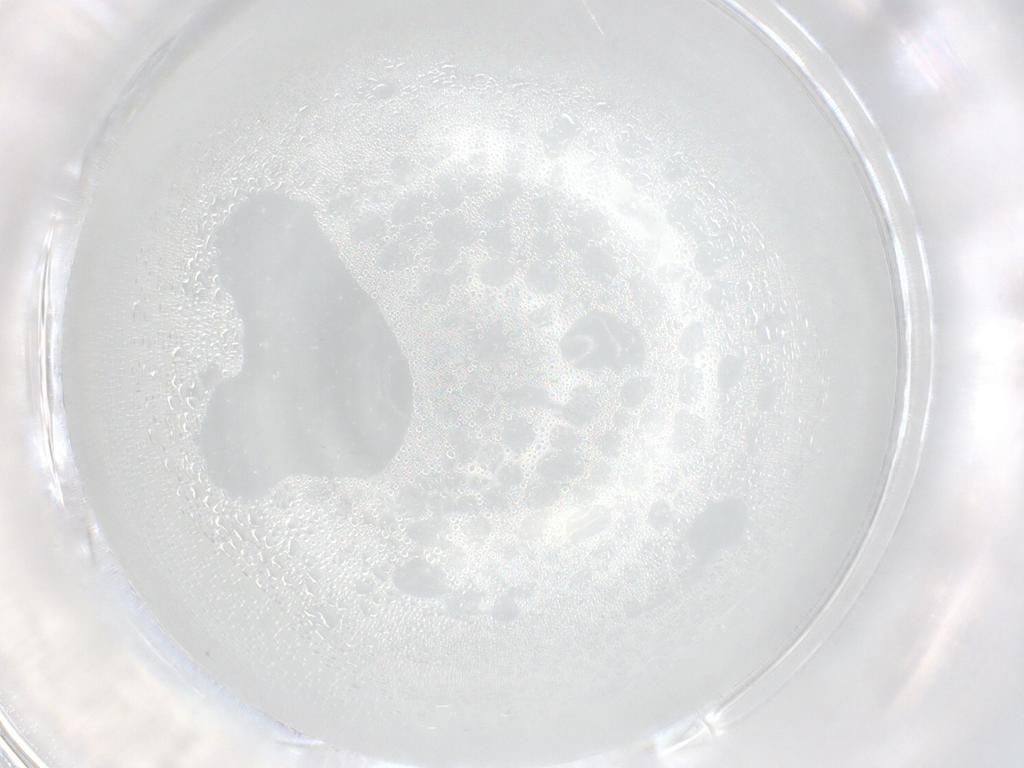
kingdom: Animalia
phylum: Arthropoda
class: Insecta
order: Diptera
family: Cecidomyiidae
